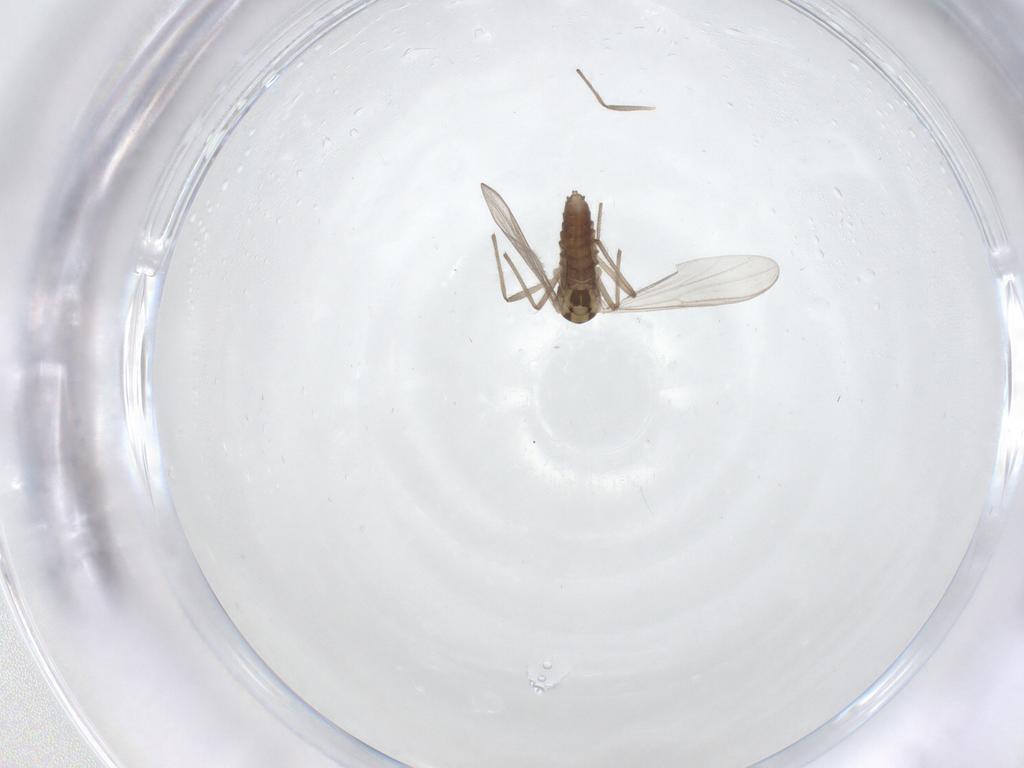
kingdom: Animalia
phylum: Arthropoda
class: Insecta
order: Diptera
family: Chironomidae
